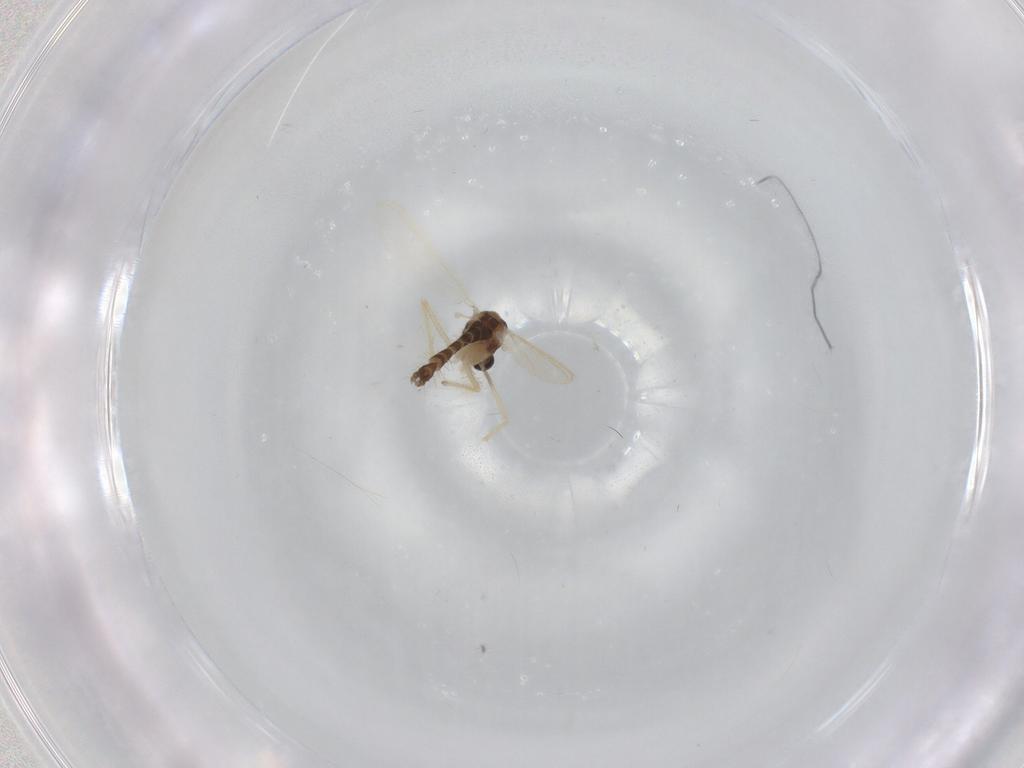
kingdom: Animalia
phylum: Arthropoda
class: Insecta
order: Diptera
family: Chironomidae
